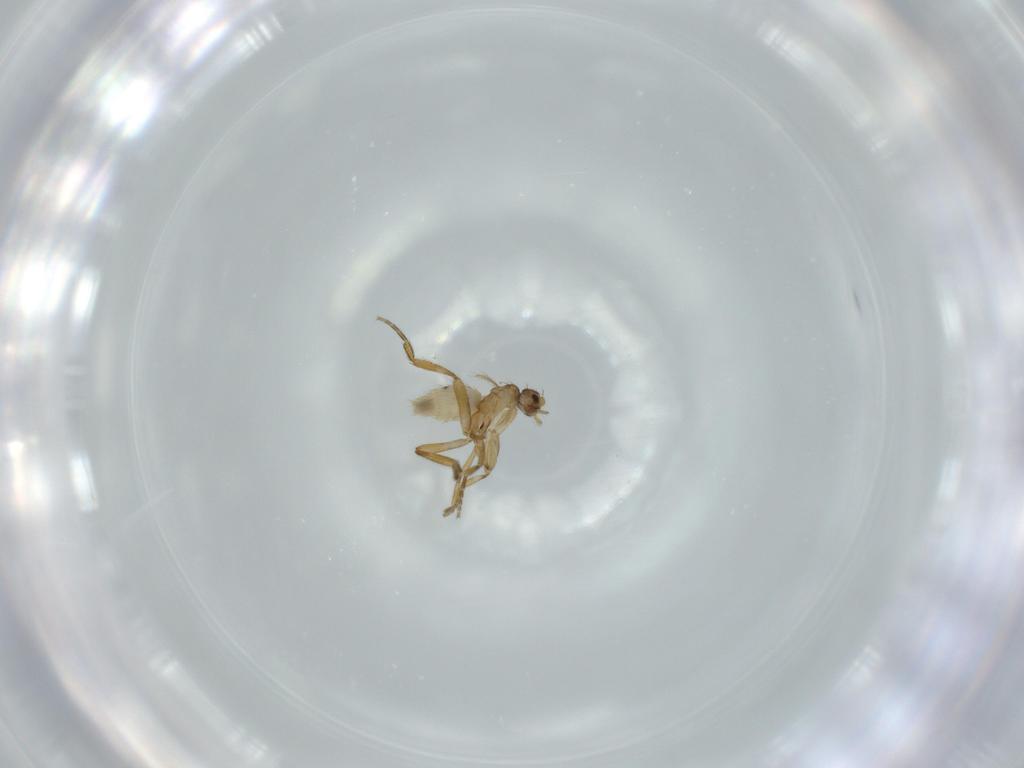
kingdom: Animalia
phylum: Arthropoda
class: Insecta
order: Diptera
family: Phoridae
